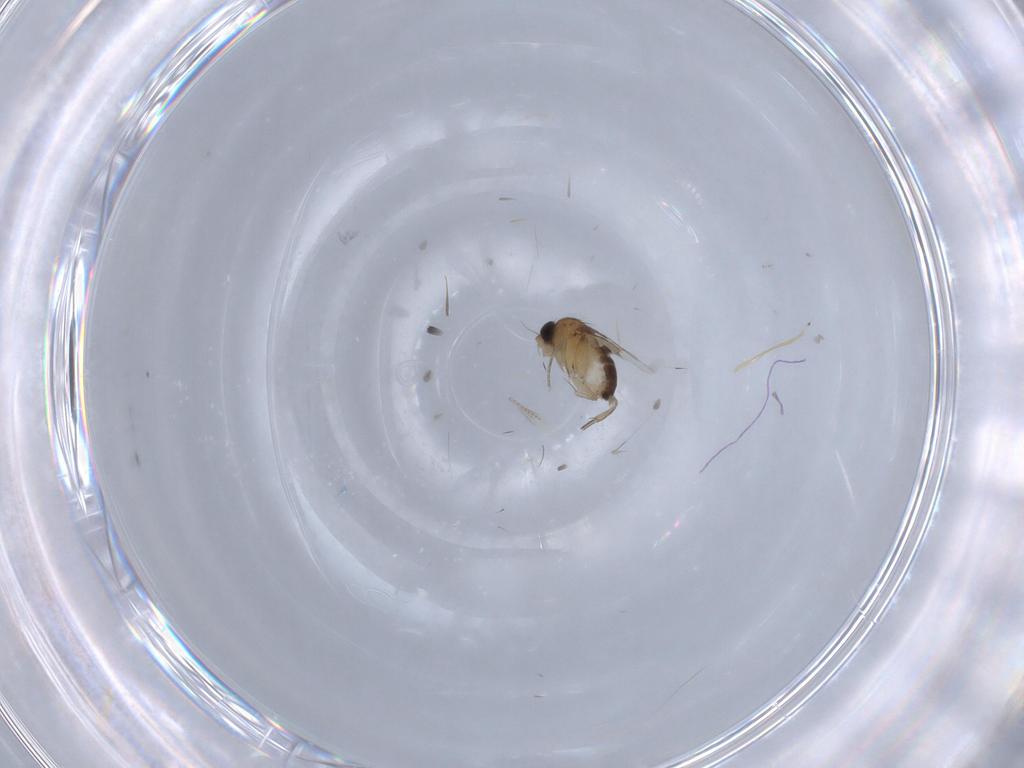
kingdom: Animalia
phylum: Arthropoda
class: Insecta
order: Diptera
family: Phoridae
